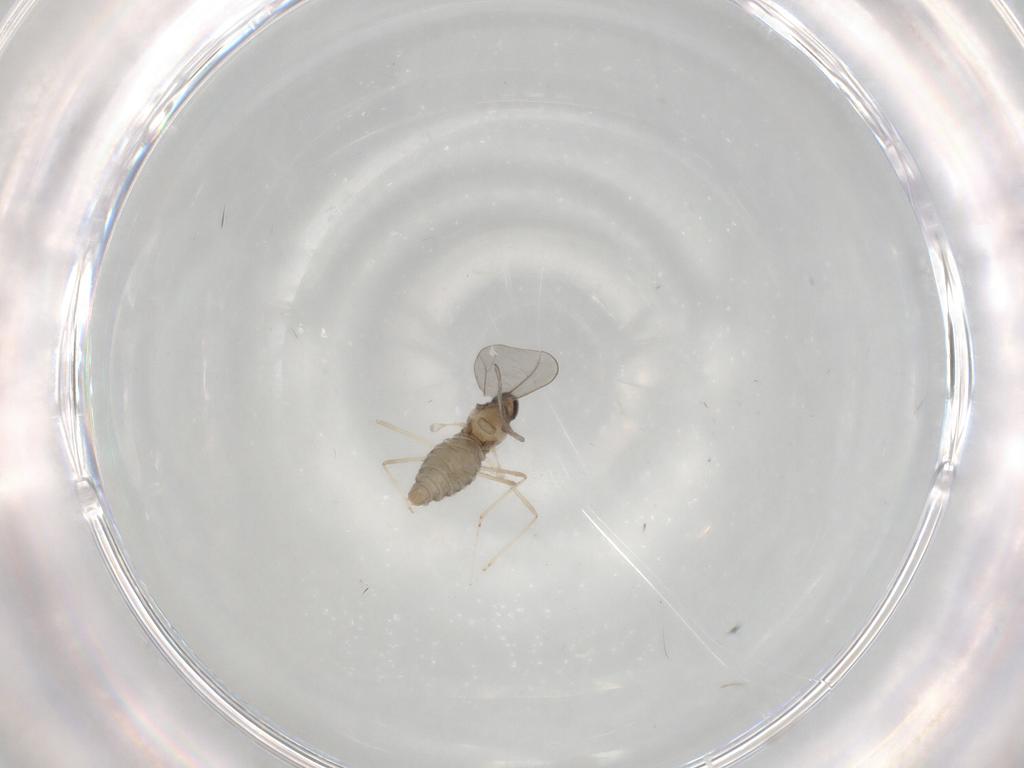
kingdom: Animalia
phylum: Arthropoda
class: Insecta
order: Diptera
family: Cecidomyiidae
